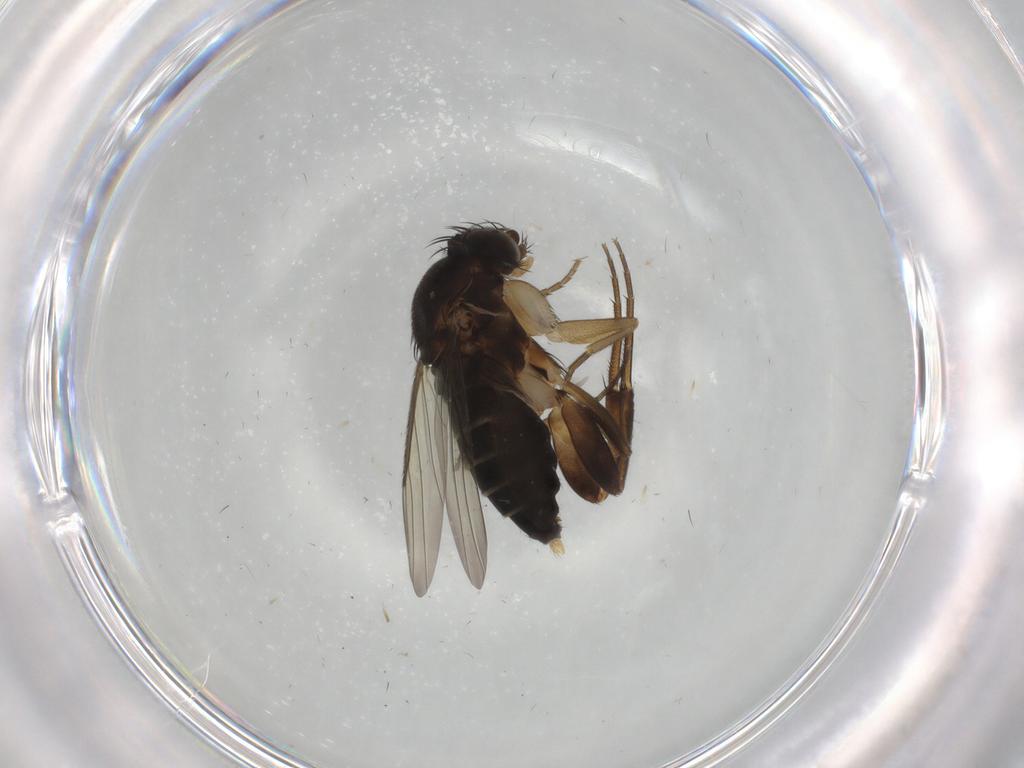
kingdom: Animalia
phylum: Arthropoda
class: Insecta
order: Diptera
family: Phoridae
